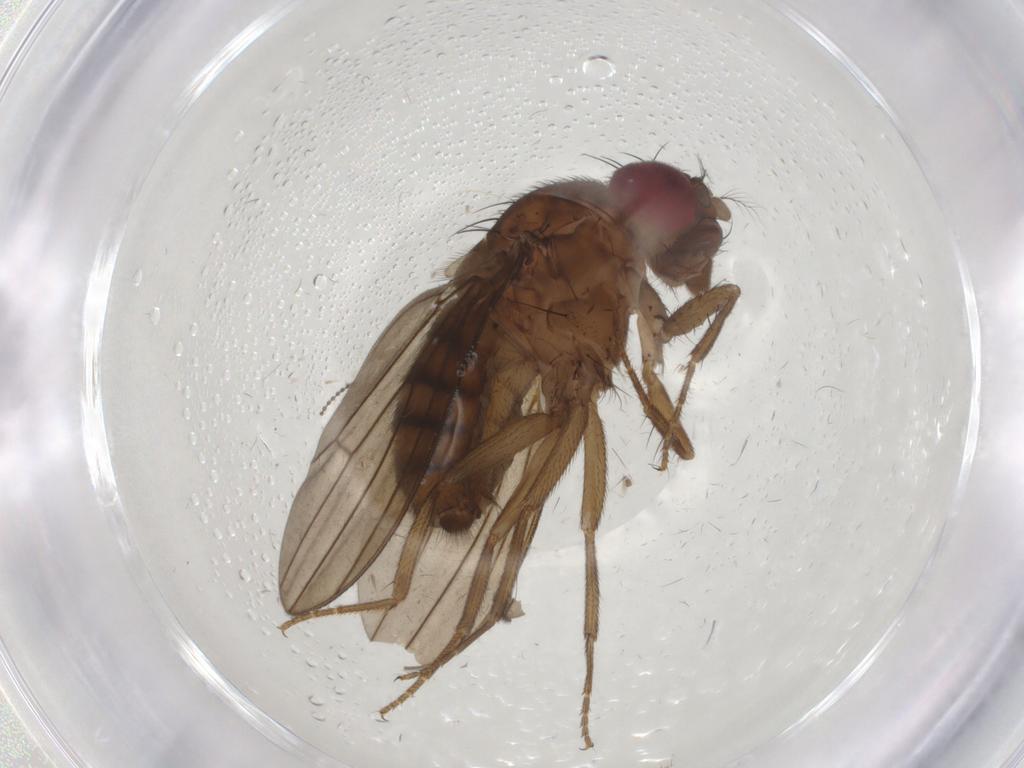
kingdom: Animalia
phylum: Arthropoda
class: Insecta
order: Diptera
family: Drosophilidae
